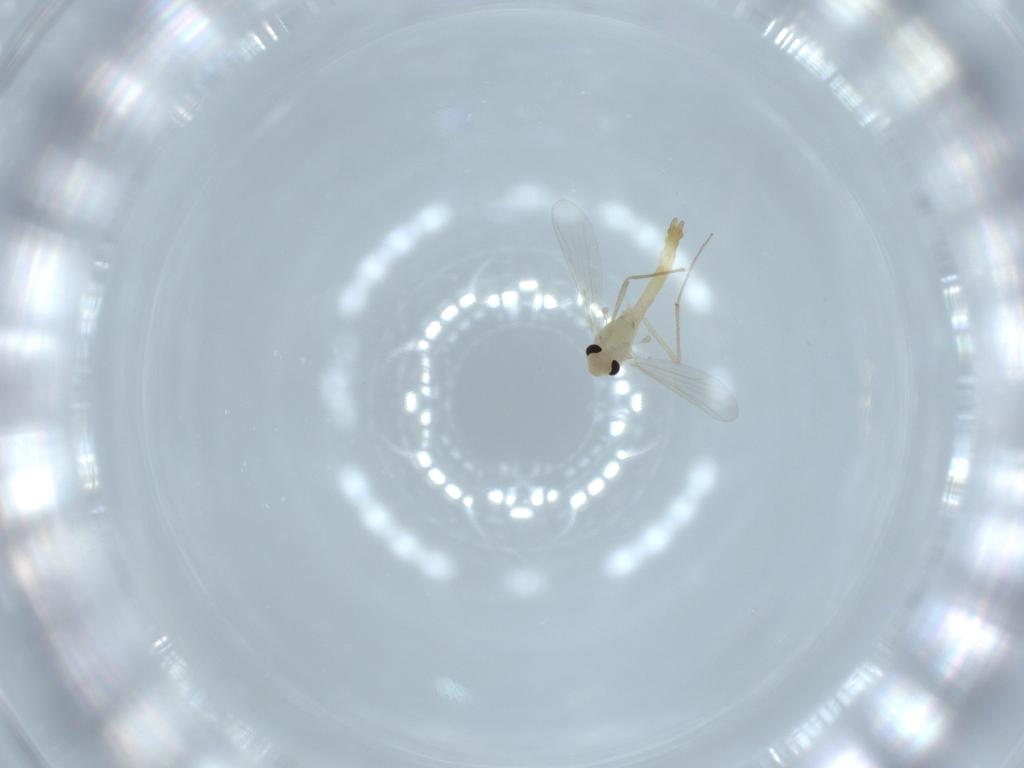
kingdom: Animalia
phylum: Arthropoda
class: Insecta
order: Diptera
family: Chironomidae
